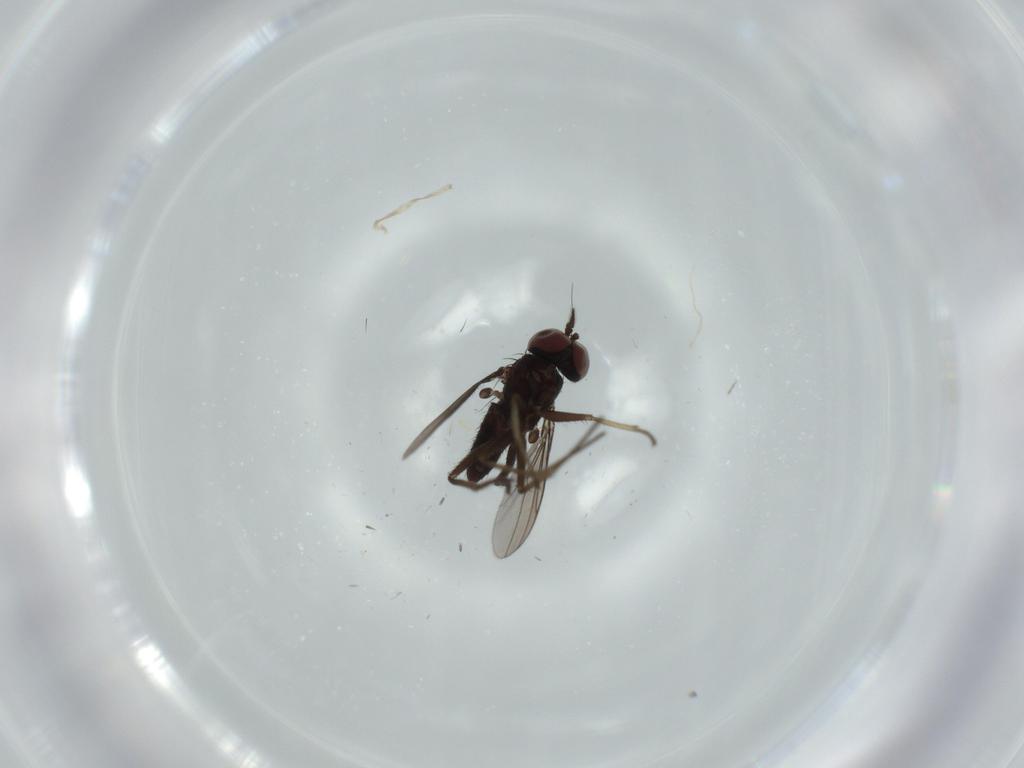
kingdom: Animalia
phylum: Arthropoda
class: Insecta
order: Diptera
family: Dolichopodidae
